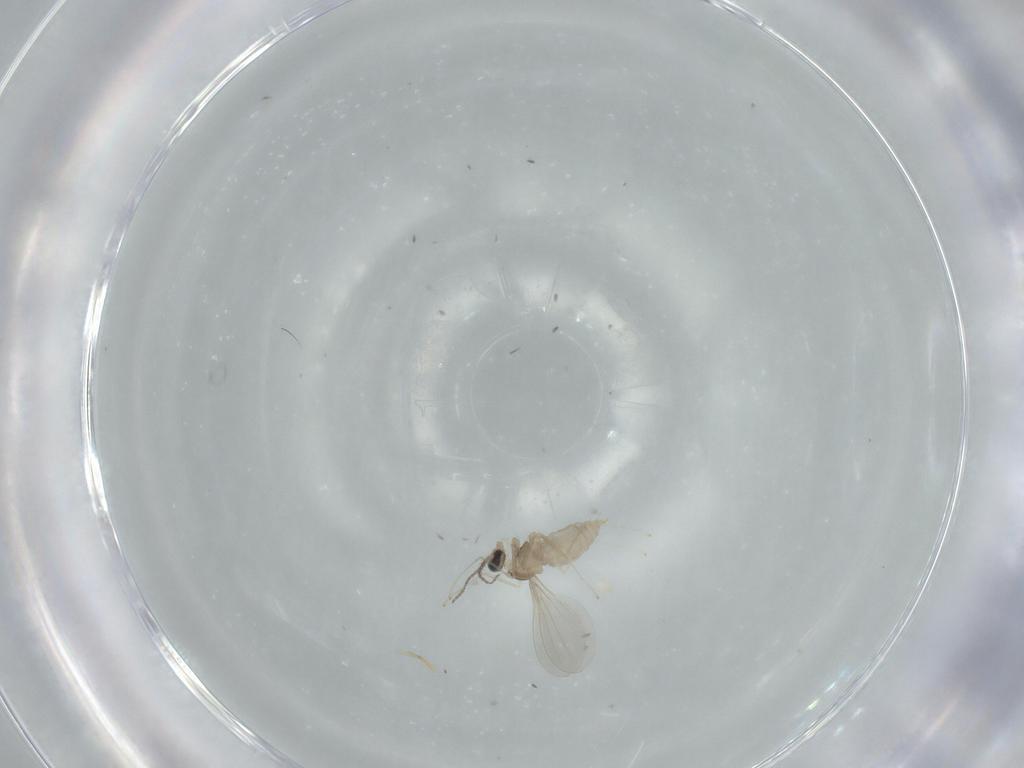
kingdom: Animalia
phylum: Arthropoda
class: Insecta
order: Diptera
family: Cecidomyiidae
